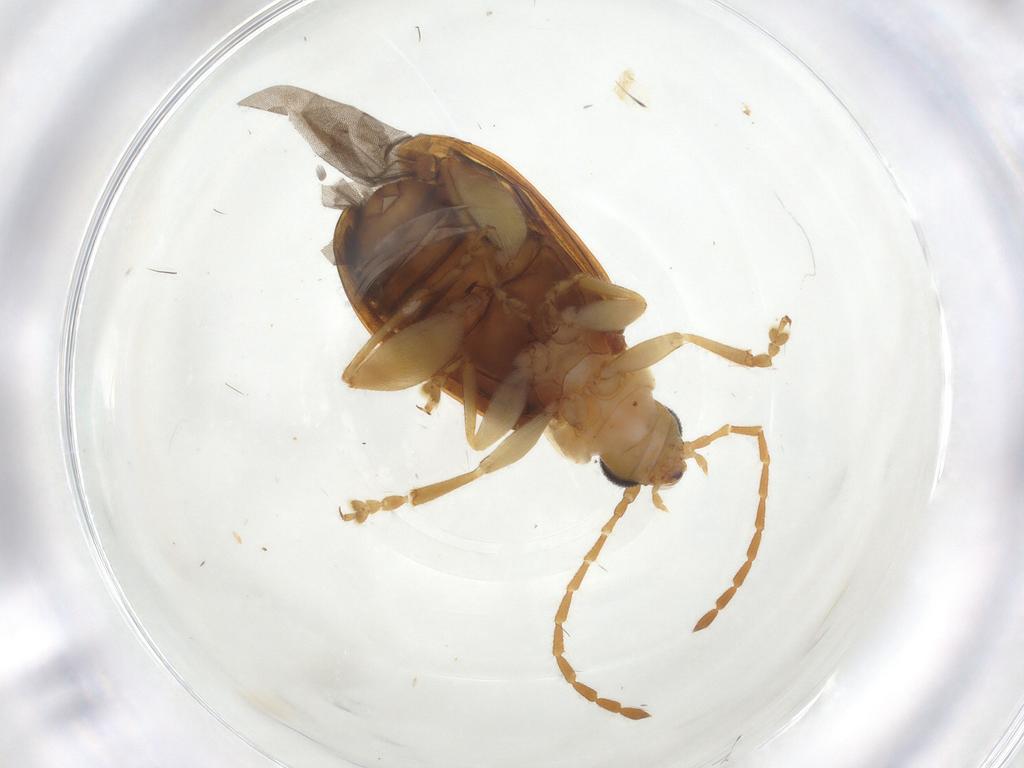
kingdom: Animalia
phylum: Arthropoda
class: Insecta
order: Coleoptera
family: Chrysomelidae
